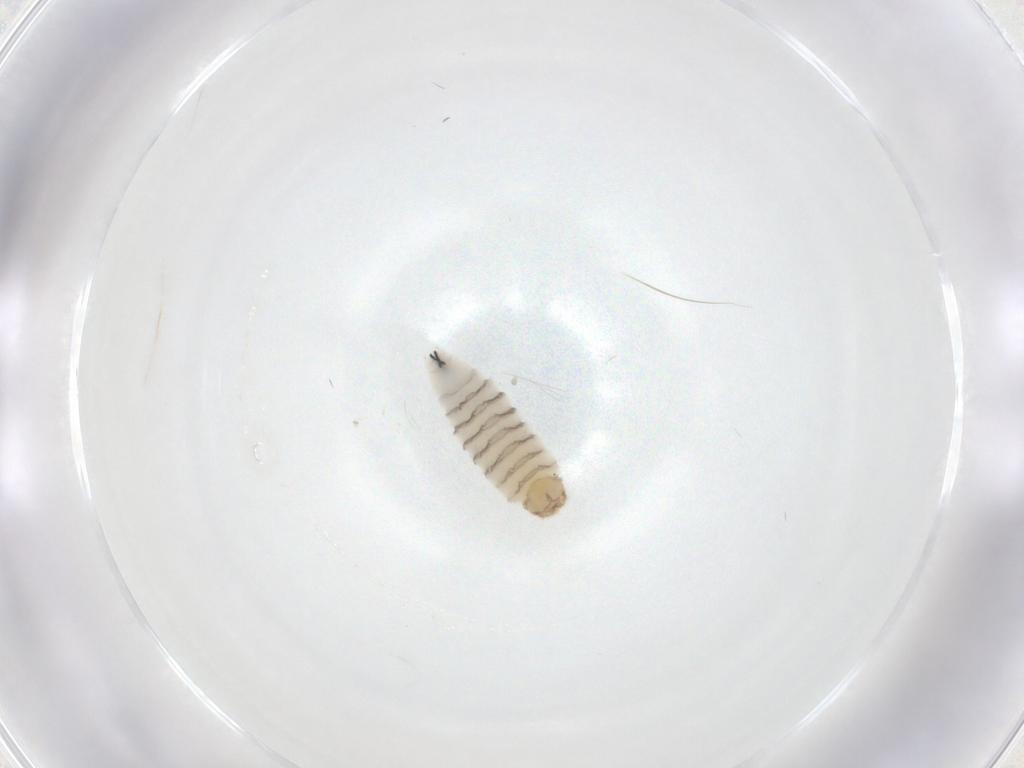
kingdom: Animalia
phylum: Arthropoda
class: Insecta
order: Diptera
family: Sarcophagidae
